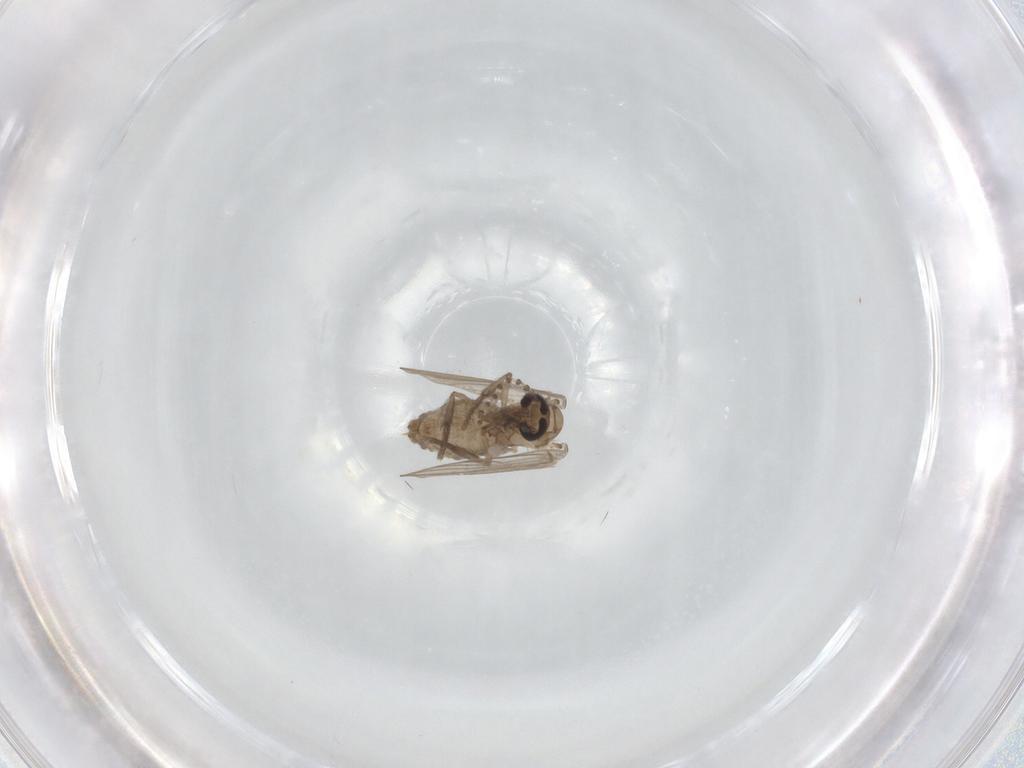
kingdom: Animalia
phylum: Arthropoda
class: Insecta
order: Diptera
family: Psychodidae
